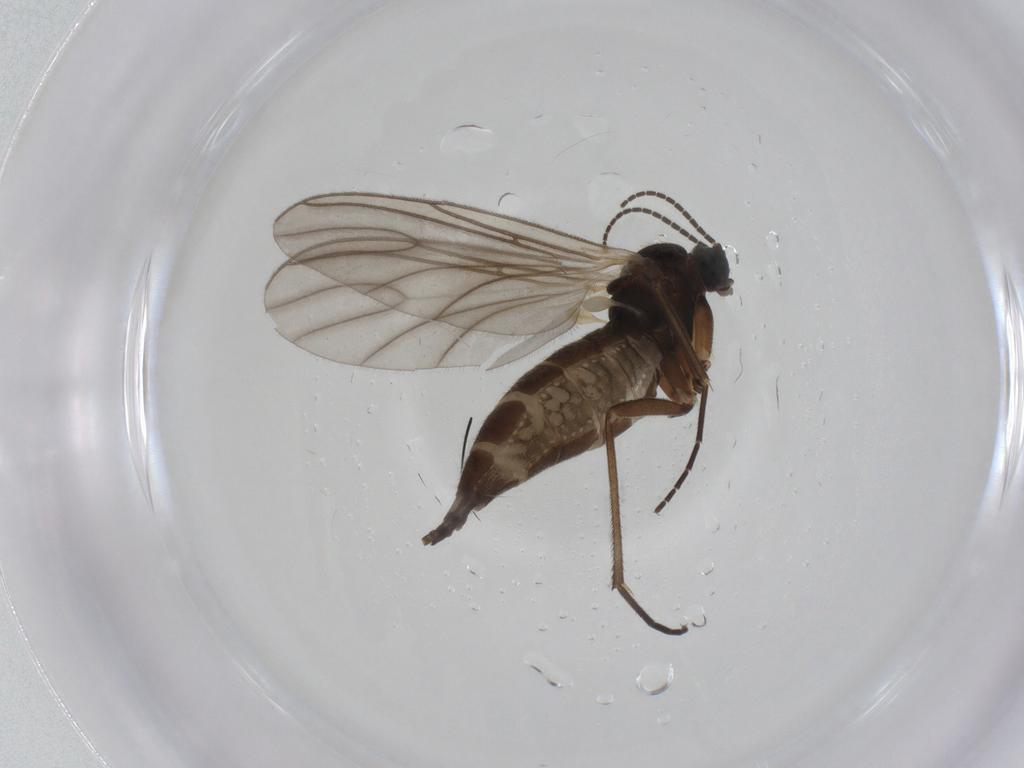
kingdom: Animalia
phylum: Arthropoda
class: Insecta
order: Diptera
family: Sciaridae
